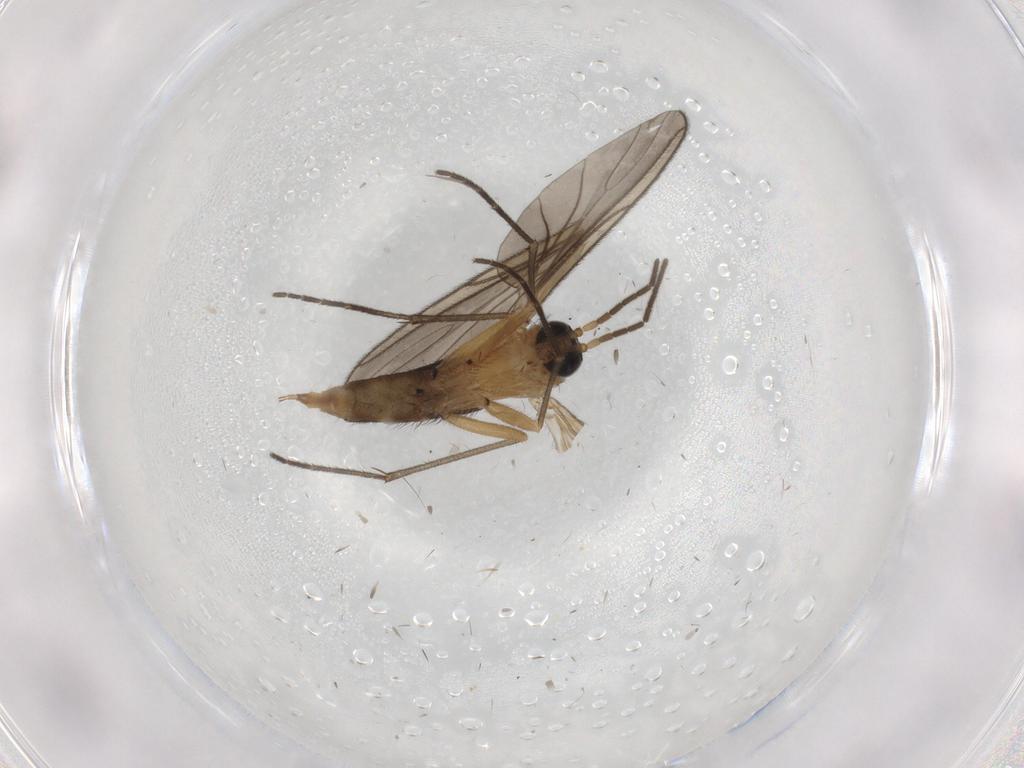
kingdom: Animalia
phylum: Arthropoda
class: Insecta
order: Diptera
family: Sciaridae
